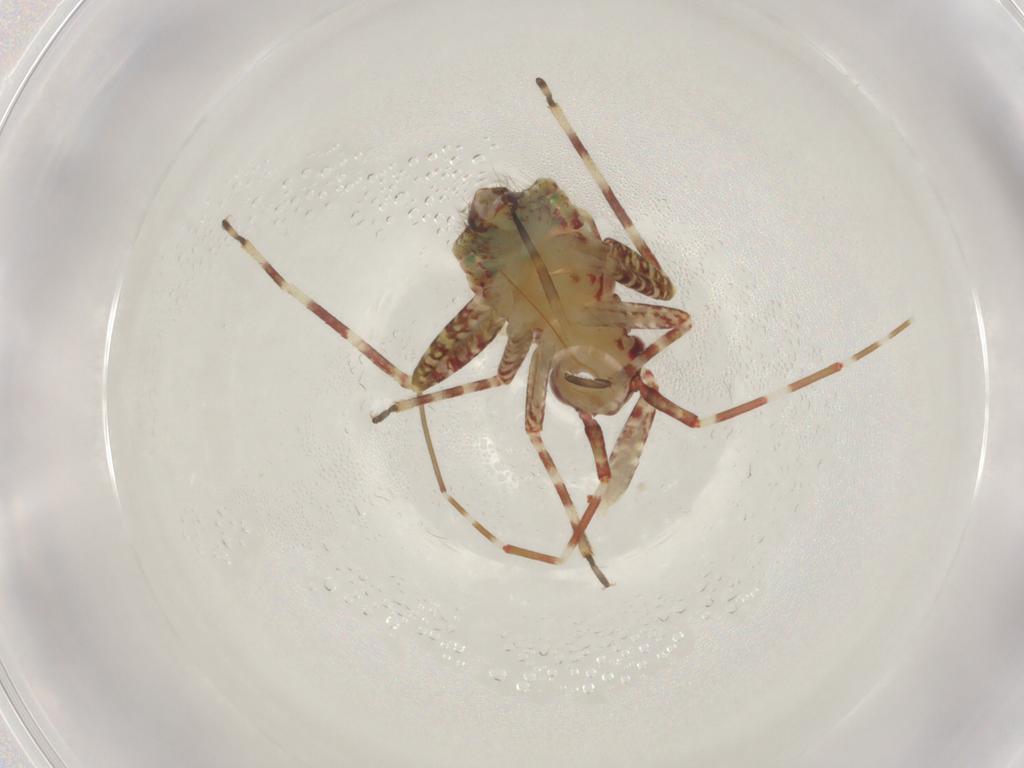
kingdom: Animalia
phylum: Arthropoda
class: Insecta
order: Hemiptera
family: Miridae
